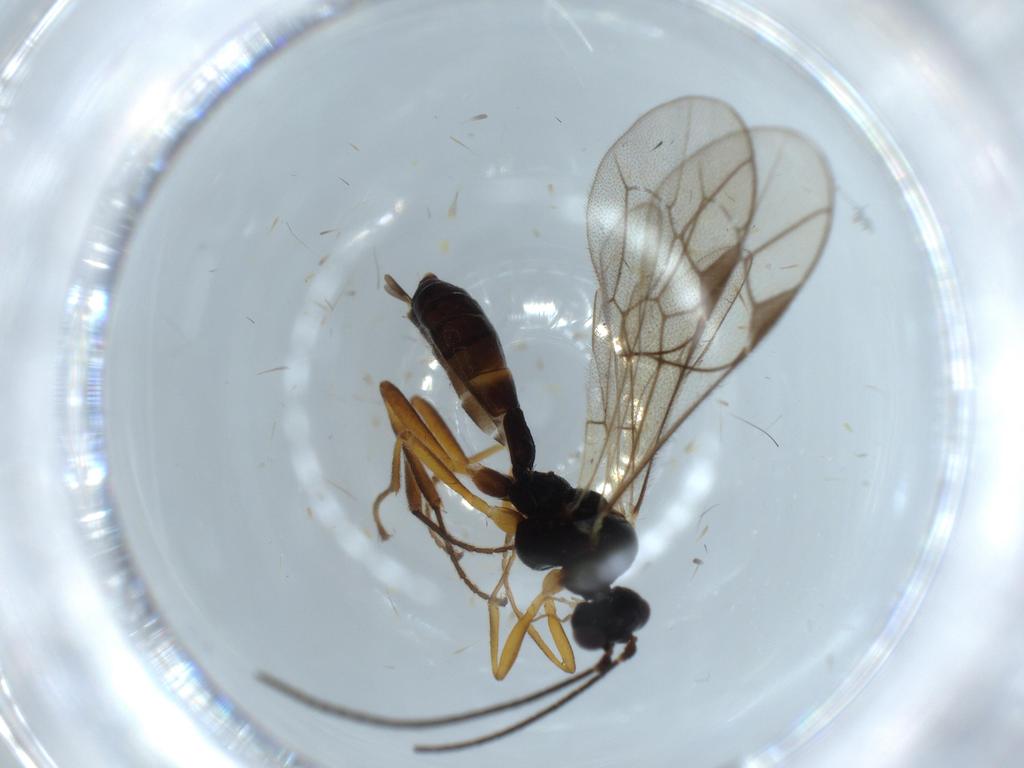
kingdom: Animalia
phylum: Arthropoda
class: Insecta
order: Hymenoptera
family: Ichneumonidae
